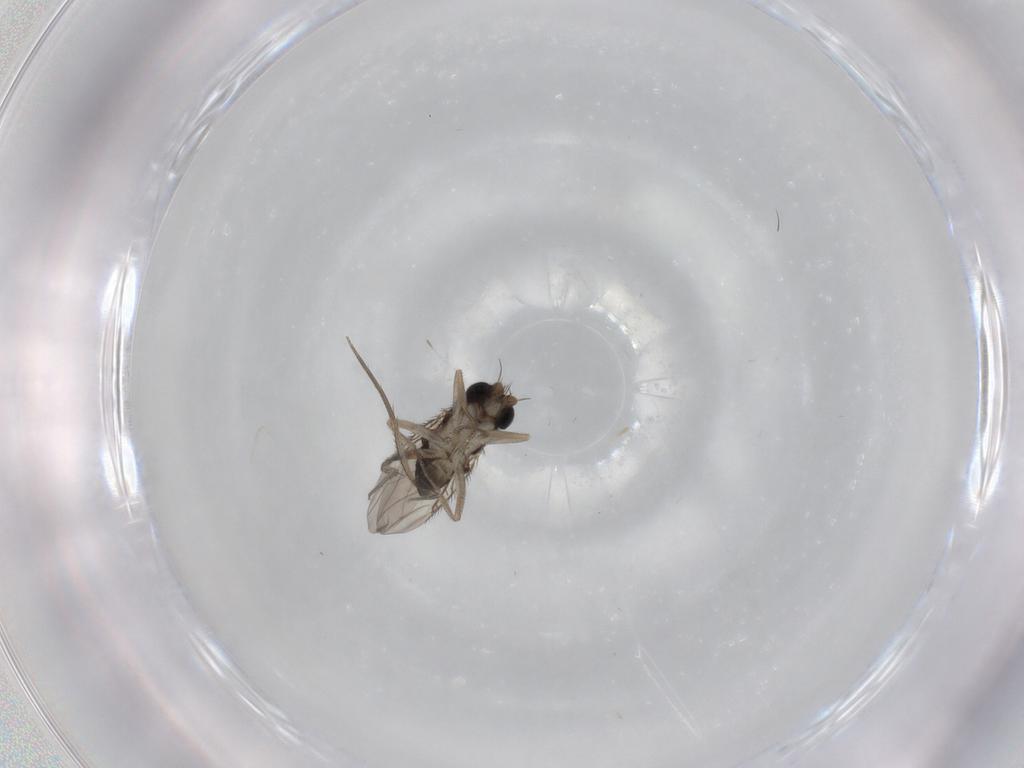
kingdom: Animalia
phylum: Arthropoda
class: Insecta
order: Diptera
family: Phoridae
